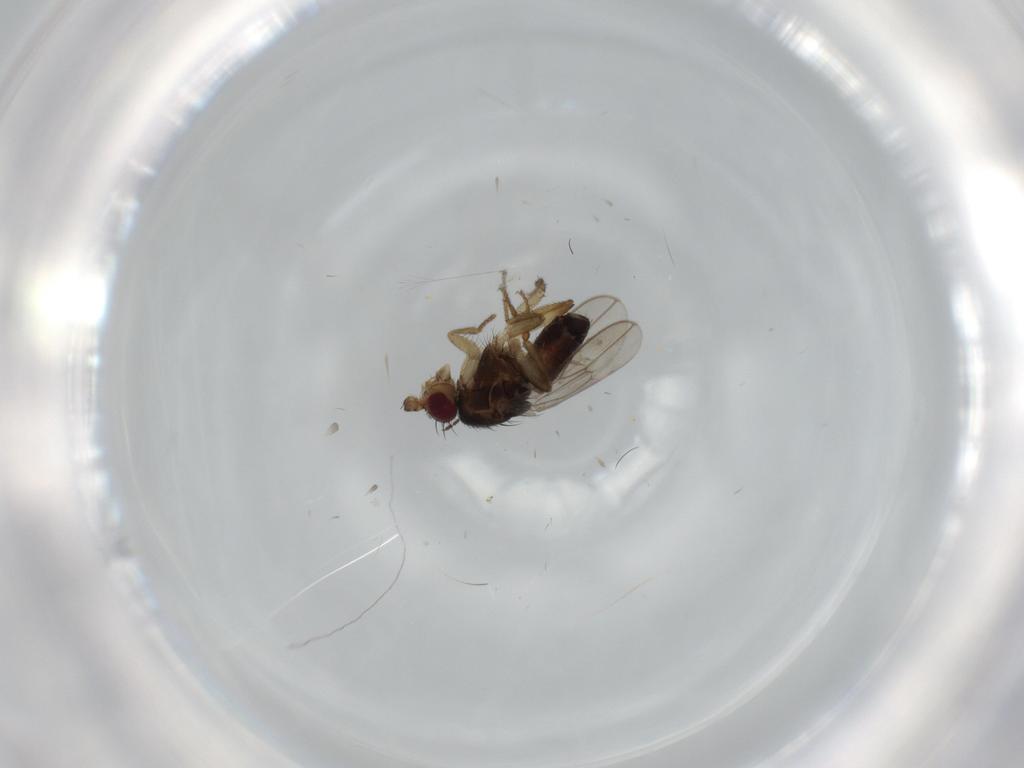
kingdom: Animalia
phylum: Arthropoda
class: Insecta
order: Diptera
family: Sphaeroceridae
